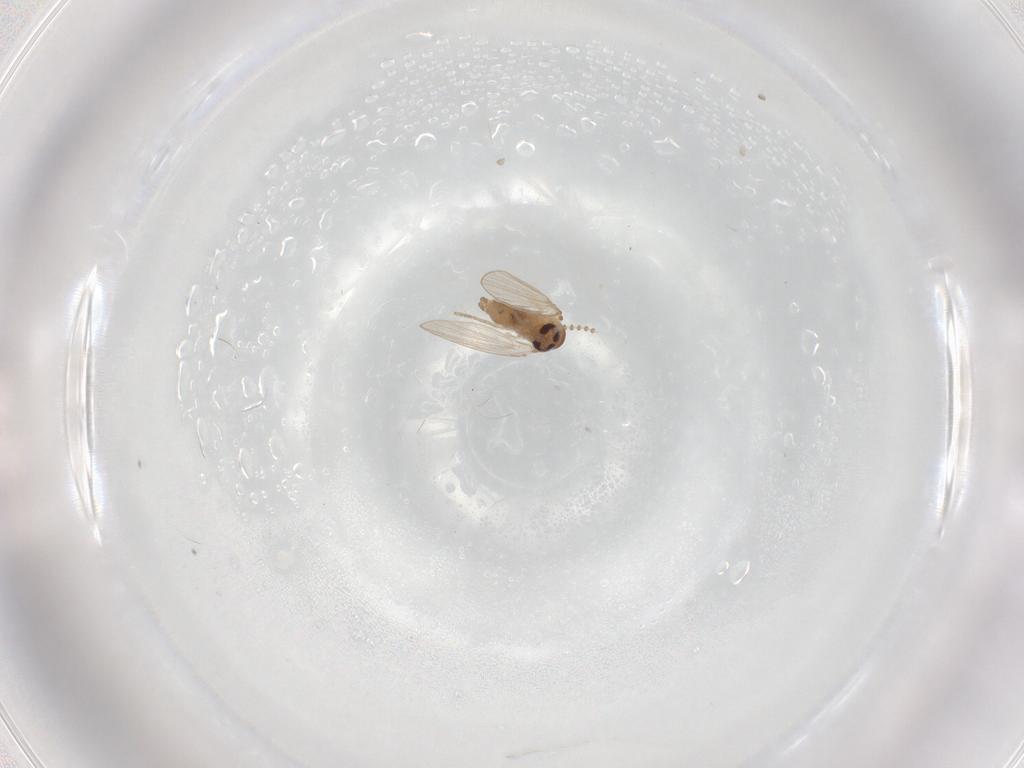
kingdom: Animalia
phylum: Arthropoda
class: Insecta
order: Diptera
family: Psychodidae
